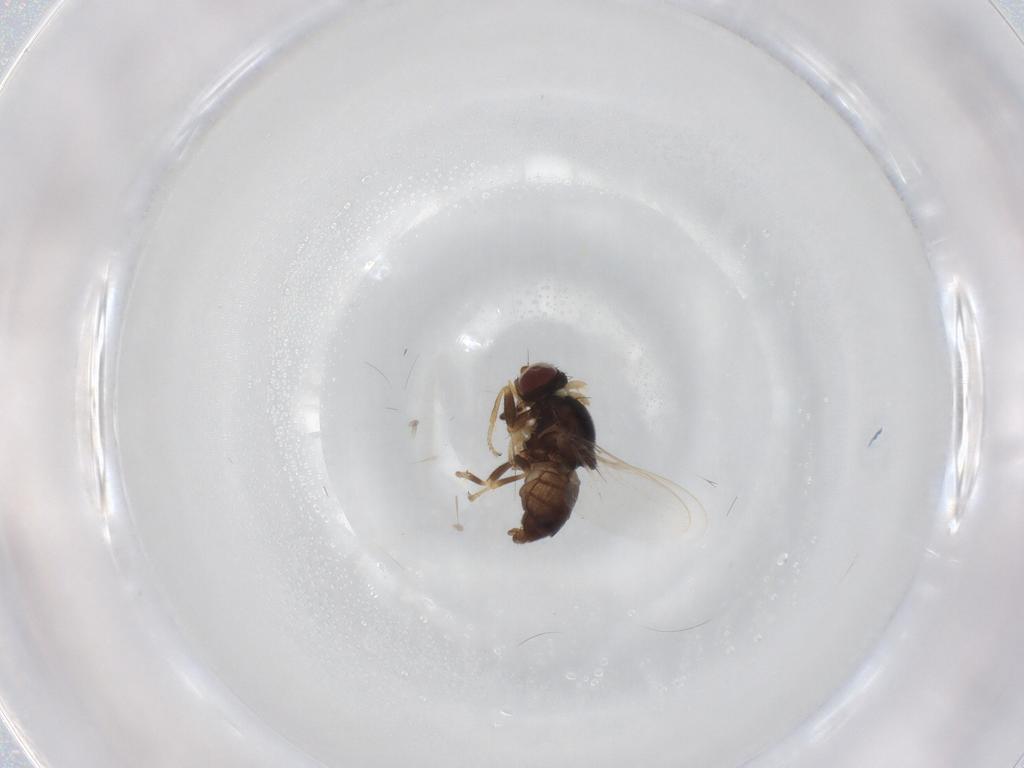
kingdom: Animalia
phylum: Arthropoda
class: Insecta
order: Diptera
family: Chloropidae
